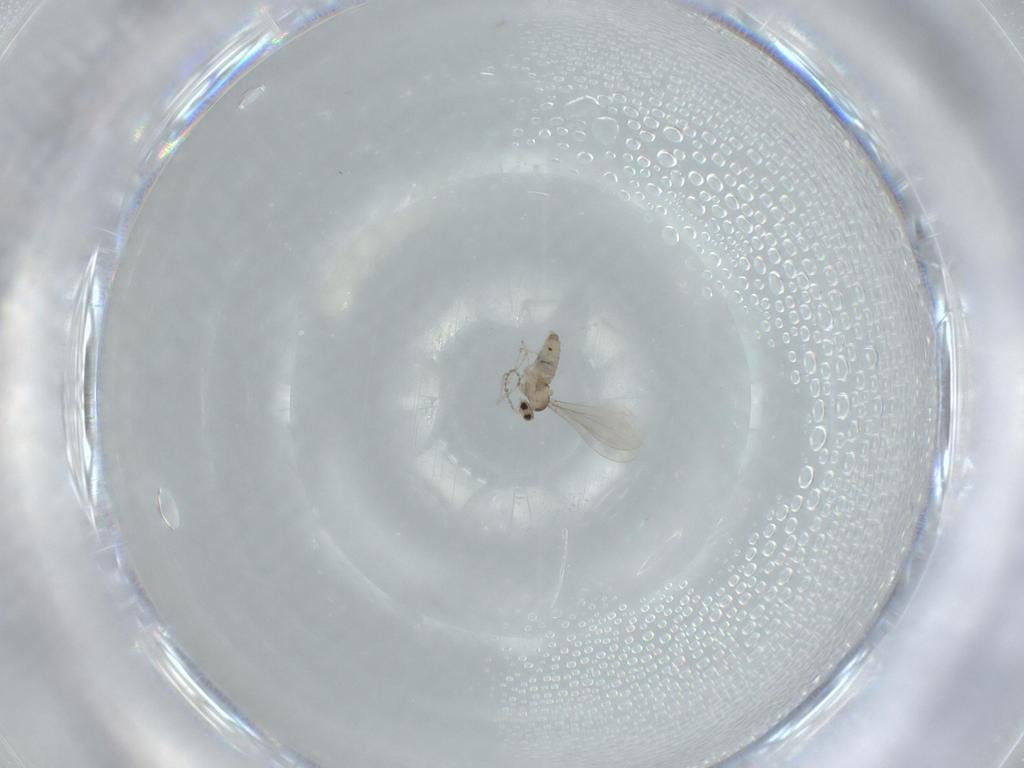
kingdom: Animalia
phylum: Arthropoda
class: Insecta
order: Diptera
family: Cecidomyiidae
